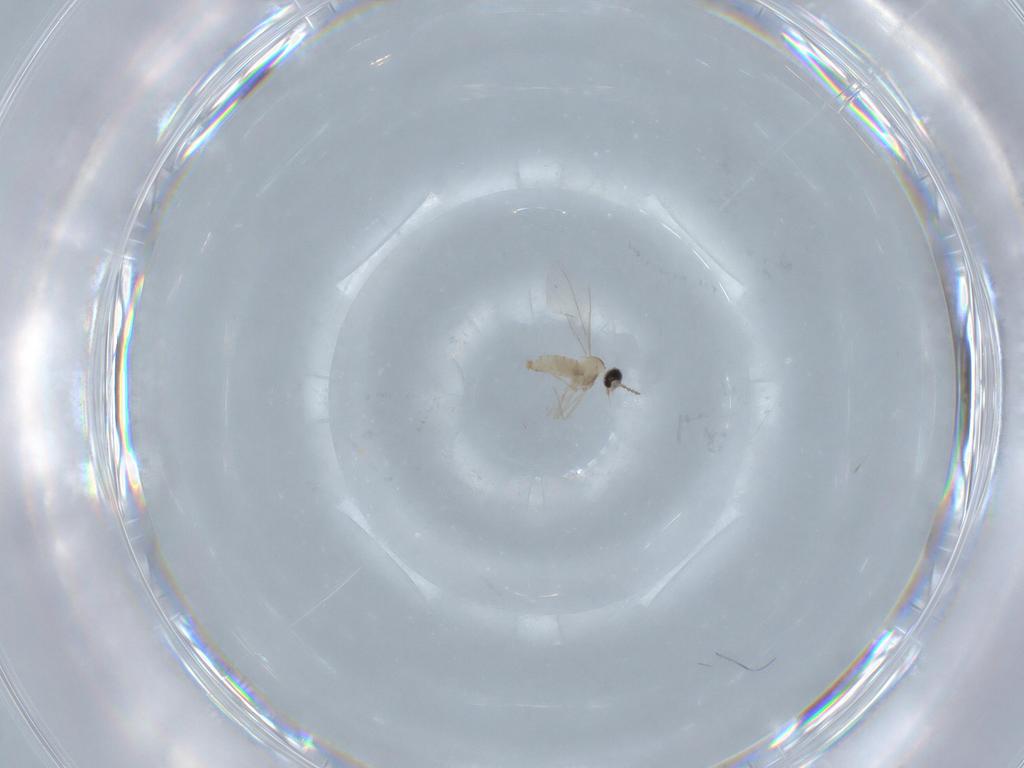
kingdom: Animalia
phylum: Arthropoda
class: Insecta
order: Diptera
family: Cecidomyiidae
